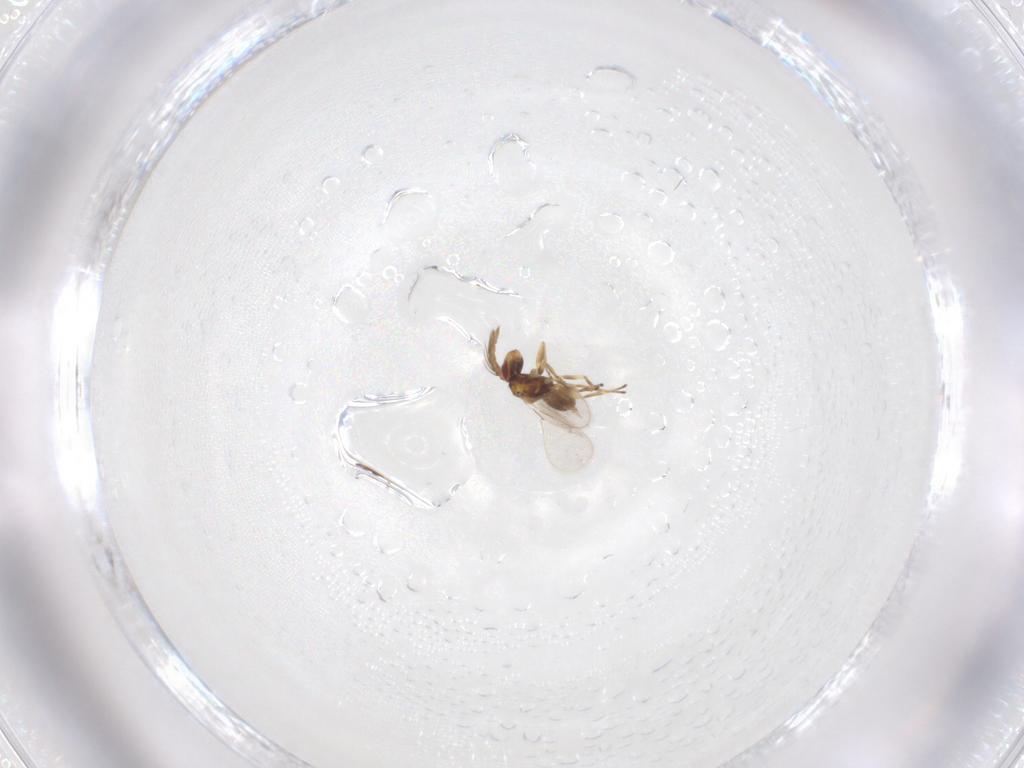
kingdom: Animalia
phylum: Arthropoda
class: Insecta
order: Hymenoptera
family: Eulophidae
